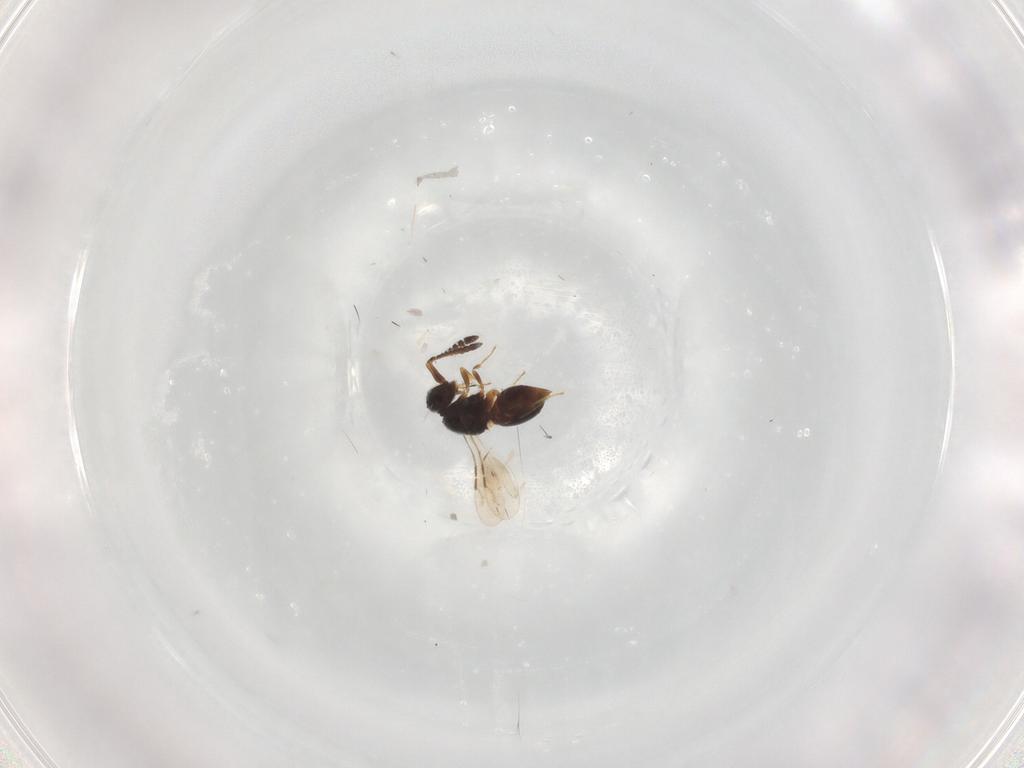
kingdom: Animalia
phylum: Arthropoda
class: Insecta
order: Hymenoptera
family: Ceraphronidae
